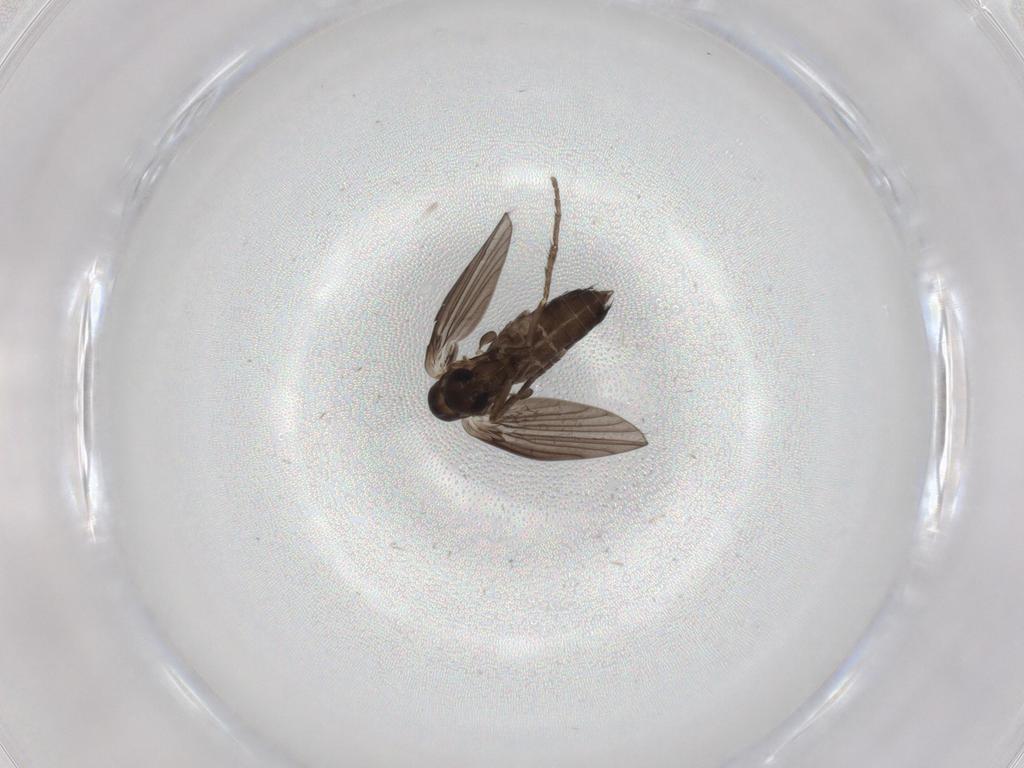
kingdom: Animalia
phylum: Arthropoda
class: Insecta
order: Diptera
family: Cecidomyiidae
